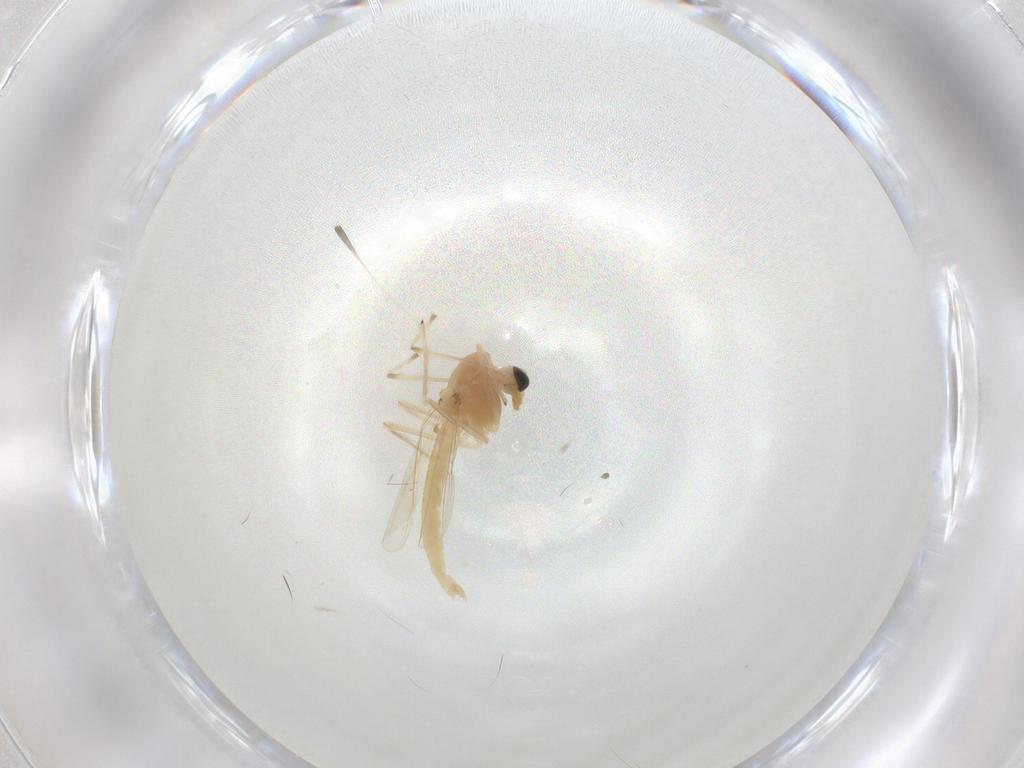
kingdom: Animalia
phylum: Arthropoda
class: Insecta
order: Diptera
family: Chironomidae
